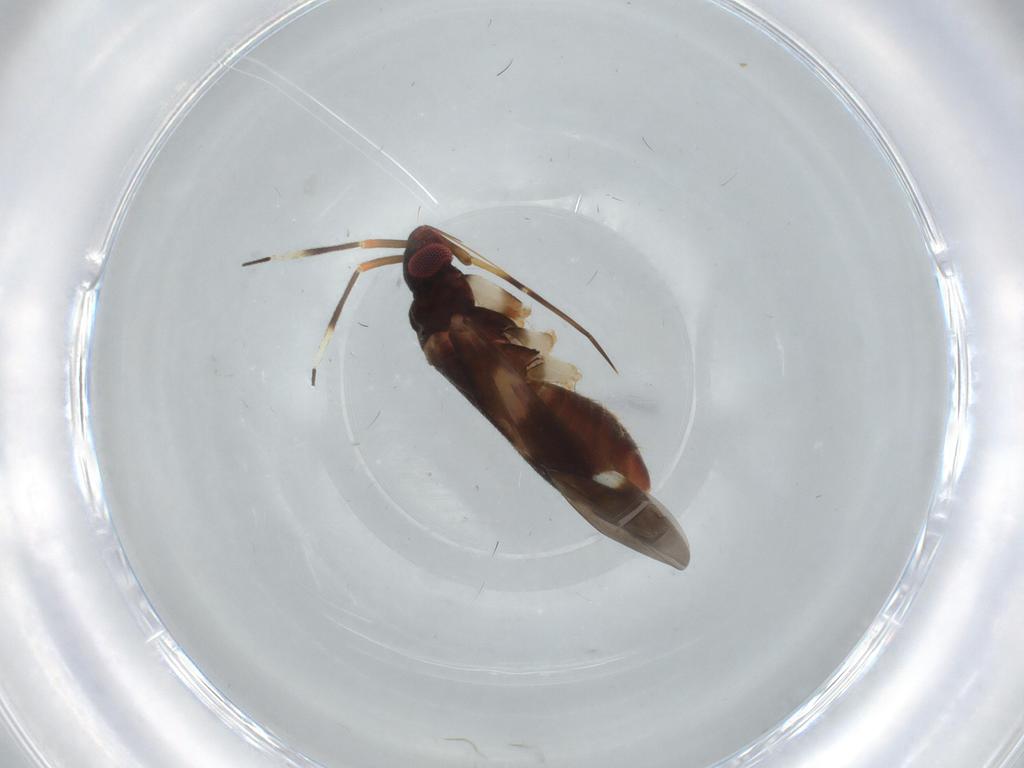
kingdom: Animalia
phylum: Arthropoda
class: Insecta
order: Hemiptera
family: Miridae
